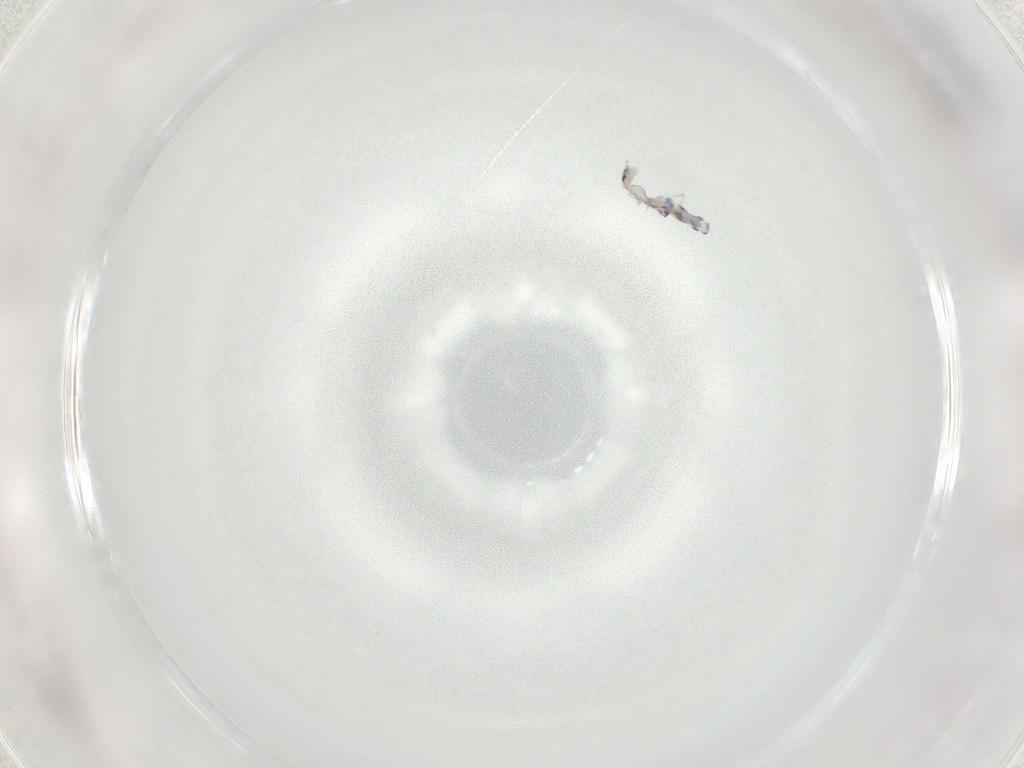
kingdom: Animalia
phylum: Arthropoda
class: Collembola
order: Entomobryomorpha
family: Entomobryidae
